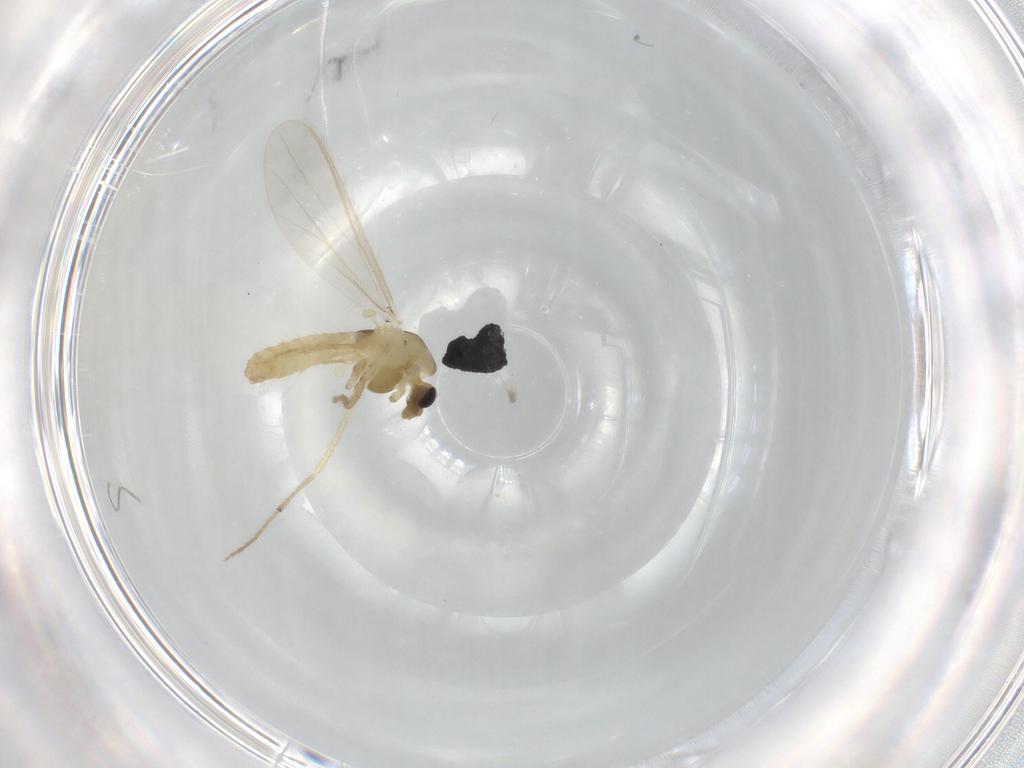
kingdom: Animalia
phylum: Arthropoda
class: Insecta
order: Diptera
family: Chironomidae
